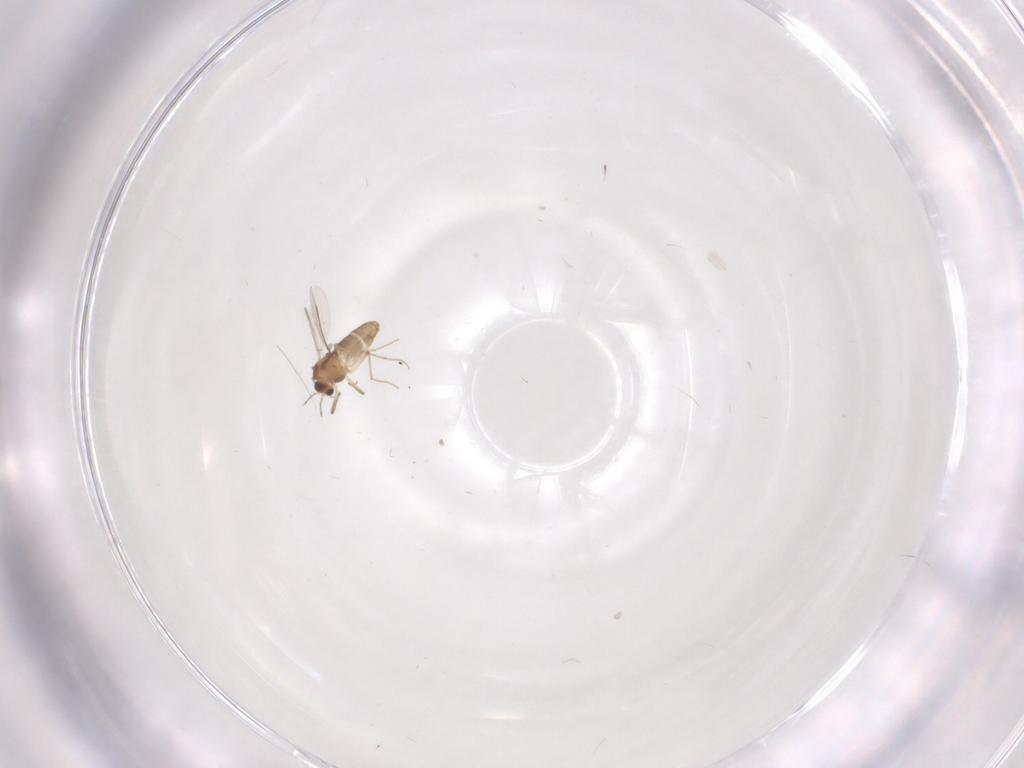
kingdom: Animalia
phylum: Arthropoda
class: Insecta
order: Diptera
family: Chironomidae
